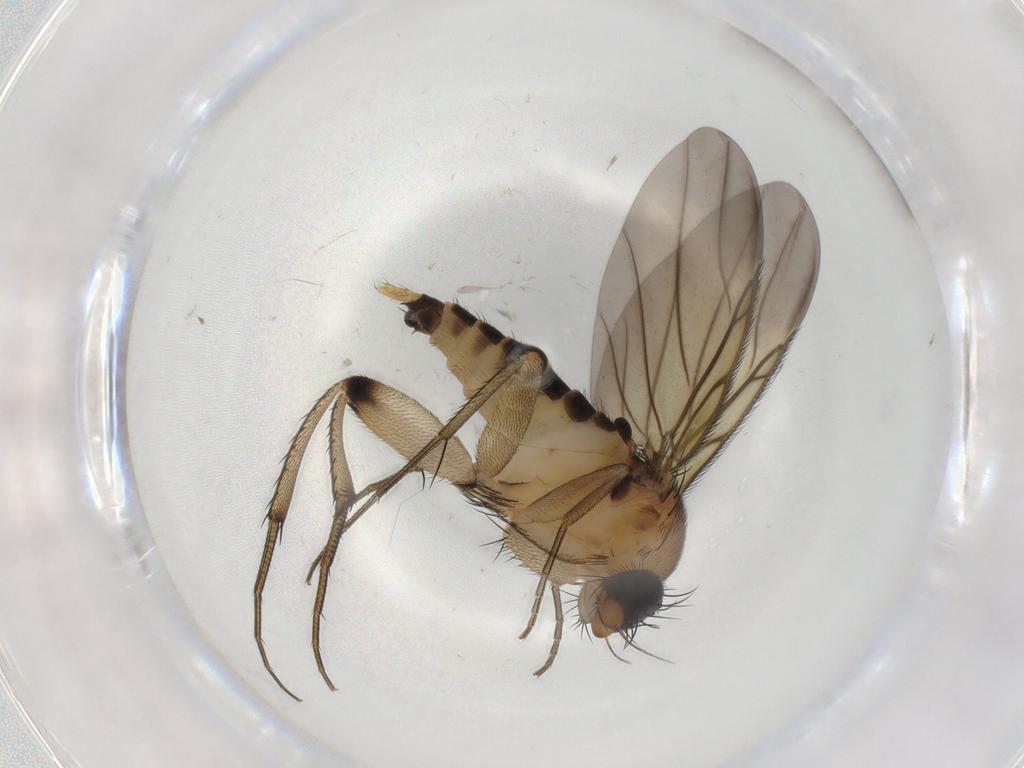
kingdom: Animalia
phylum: Arthropoda
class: Insecta
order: Diptera
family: Phoridae
